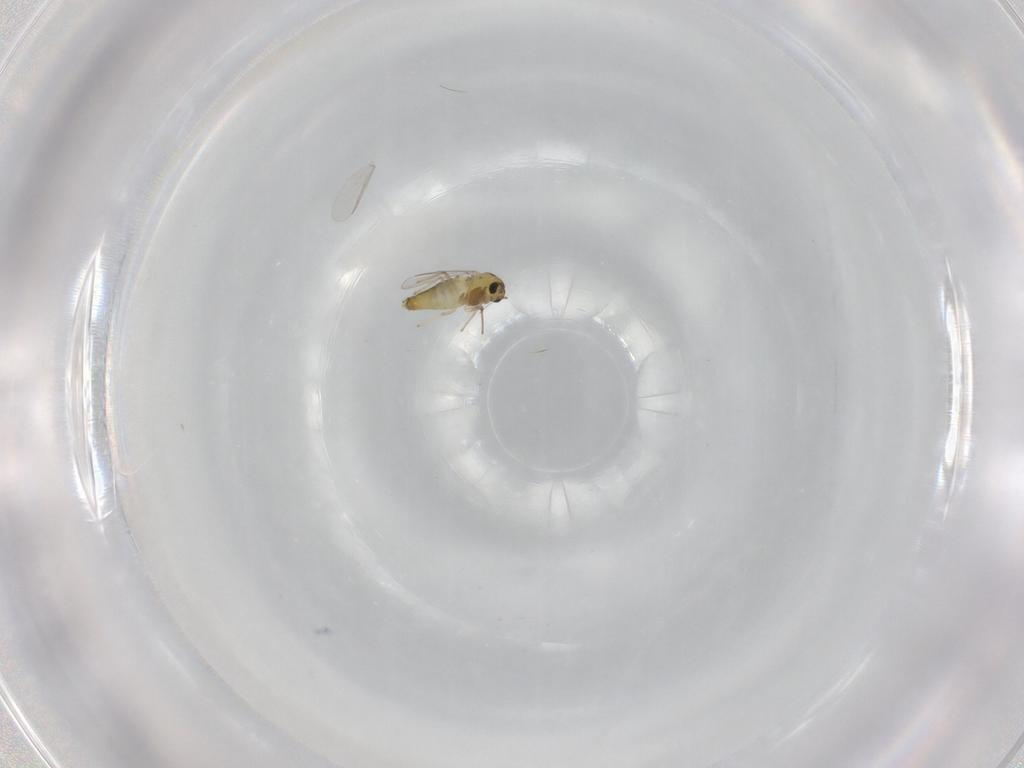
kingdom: Animalia
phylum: Arthropoda
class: Insecta
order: Diptera
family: Chironomidae
